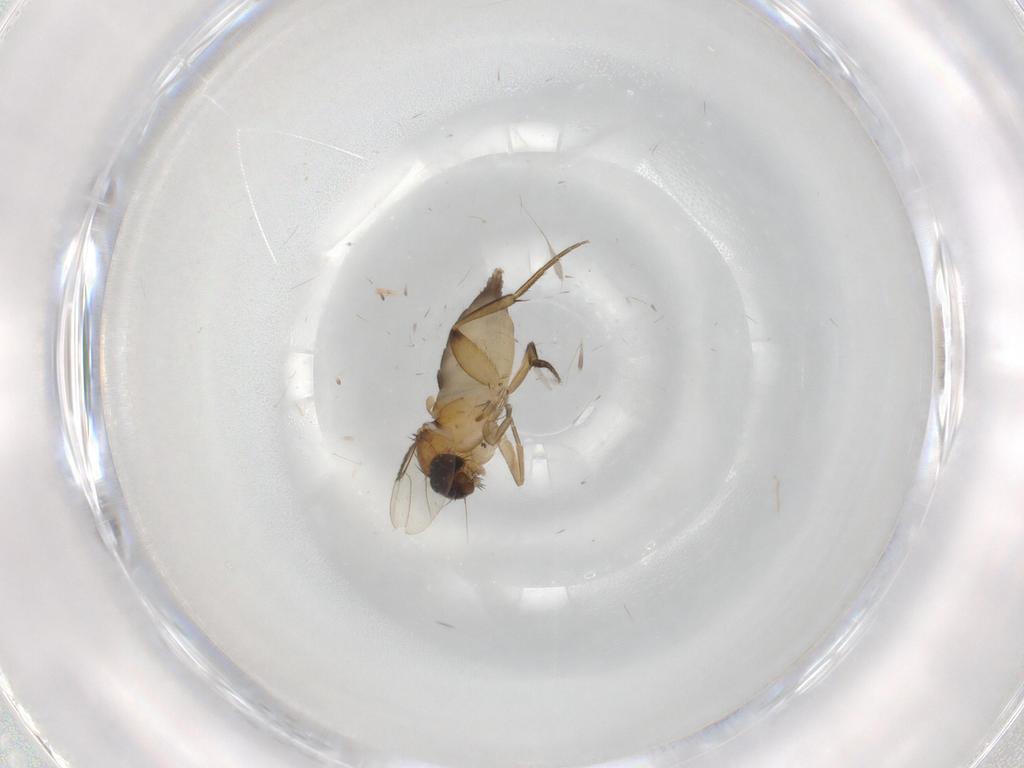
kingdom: Animalia
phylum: Arthropoda
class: Insecta
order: Diptera
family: Phoridae
